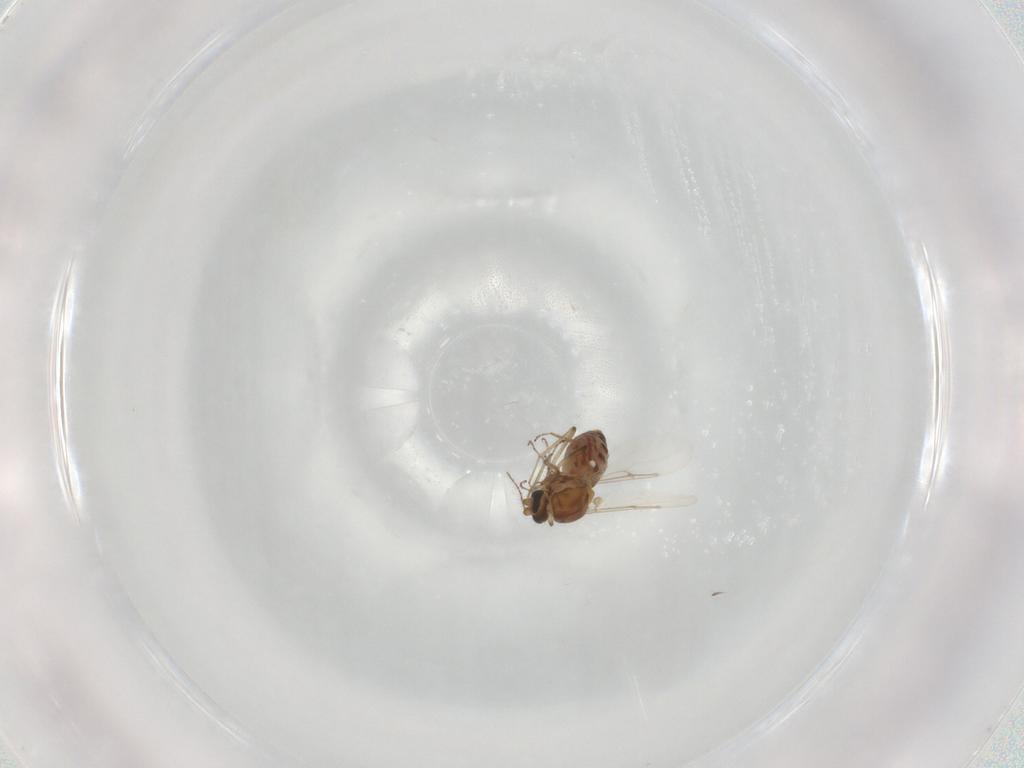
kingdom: Animalia
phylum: Arthropoda
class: Insecta
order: Diptera
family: Ceratopogonidae
